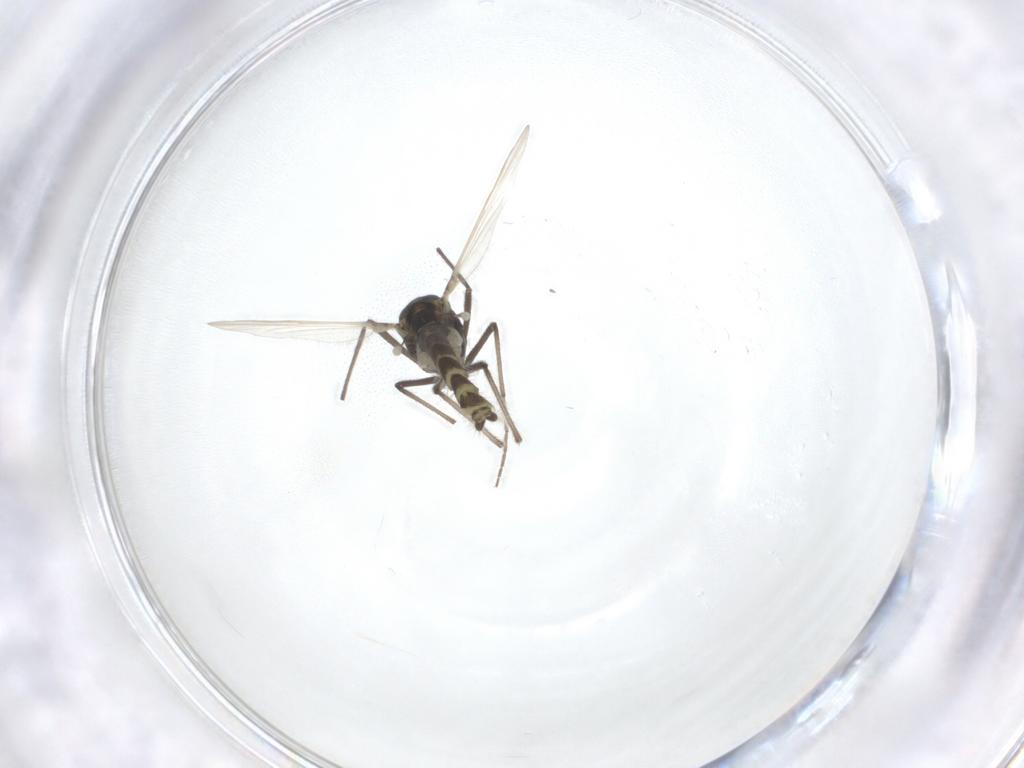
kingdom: Animalia
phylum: Arthropoda
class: Insecta
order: Diptera
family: Chironomidae
